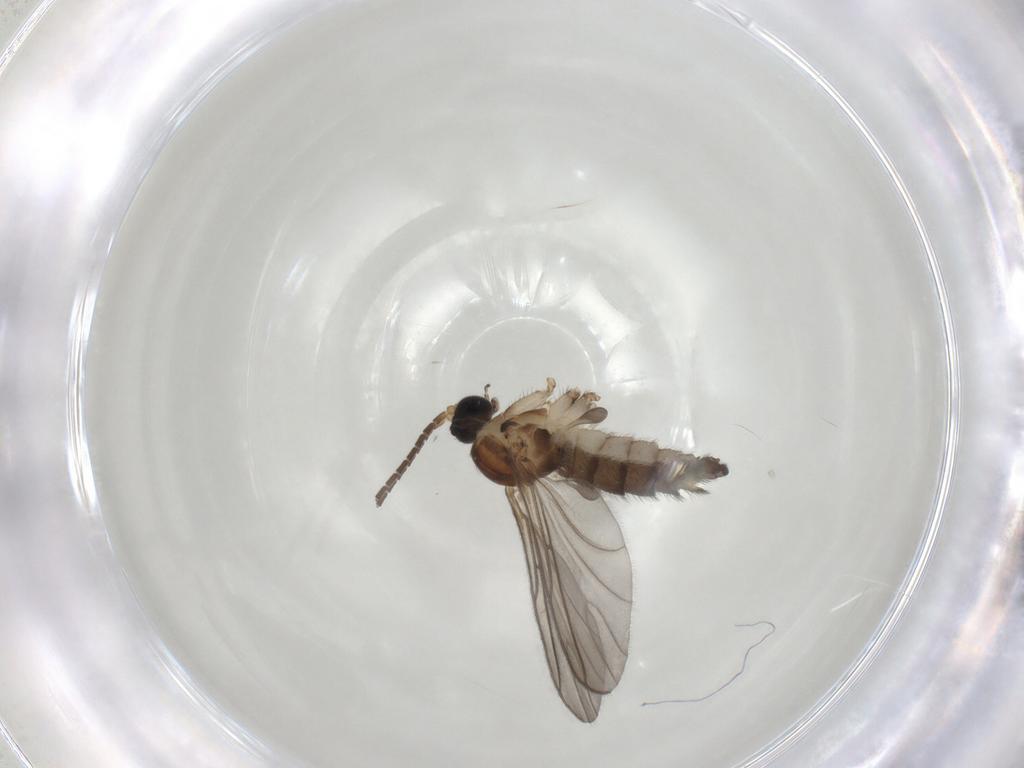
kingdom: Animalia
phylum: Arthropoda
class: Insecta
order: Diptera
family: Sciaridae
